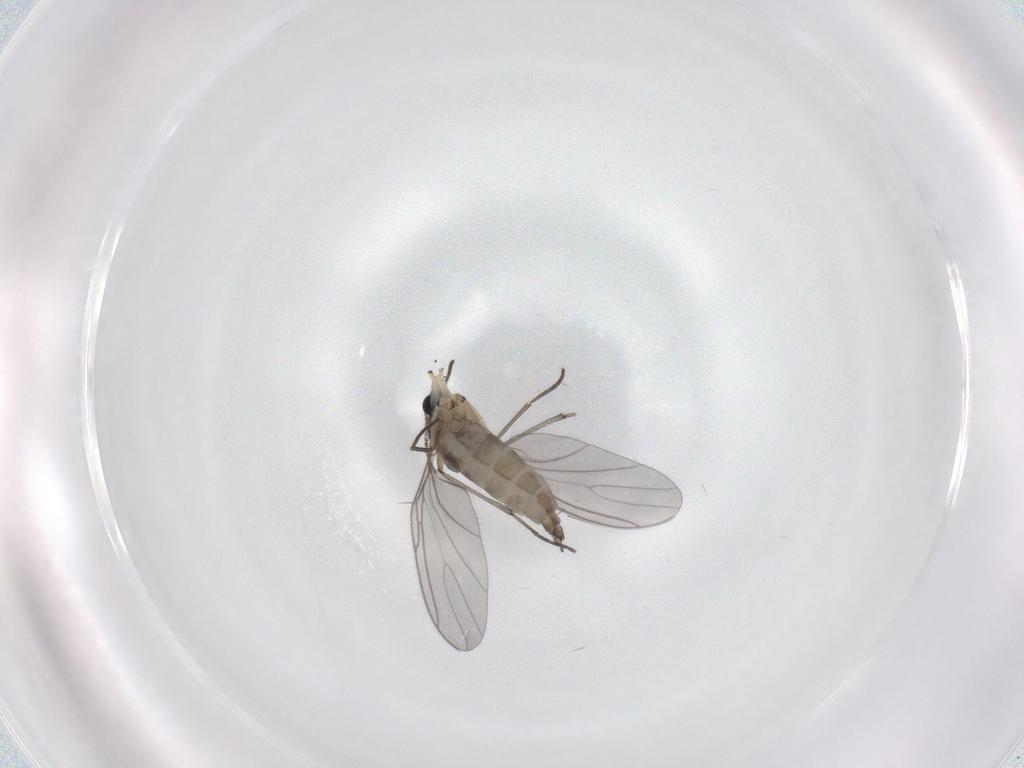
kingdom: Animalia
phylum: Arthropoda
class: Insecta
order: Diptera
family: Sciaridae
